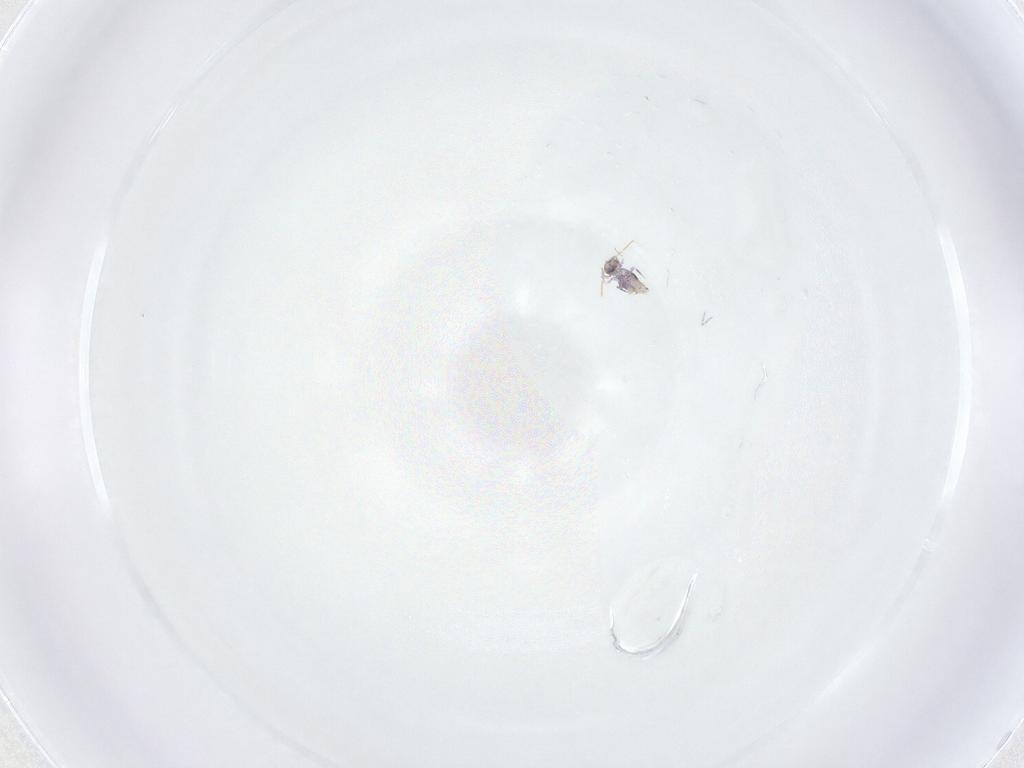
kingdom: Animalia
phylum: Arthropoda
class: Collembola
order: Symphypleona
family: Katiannidae
